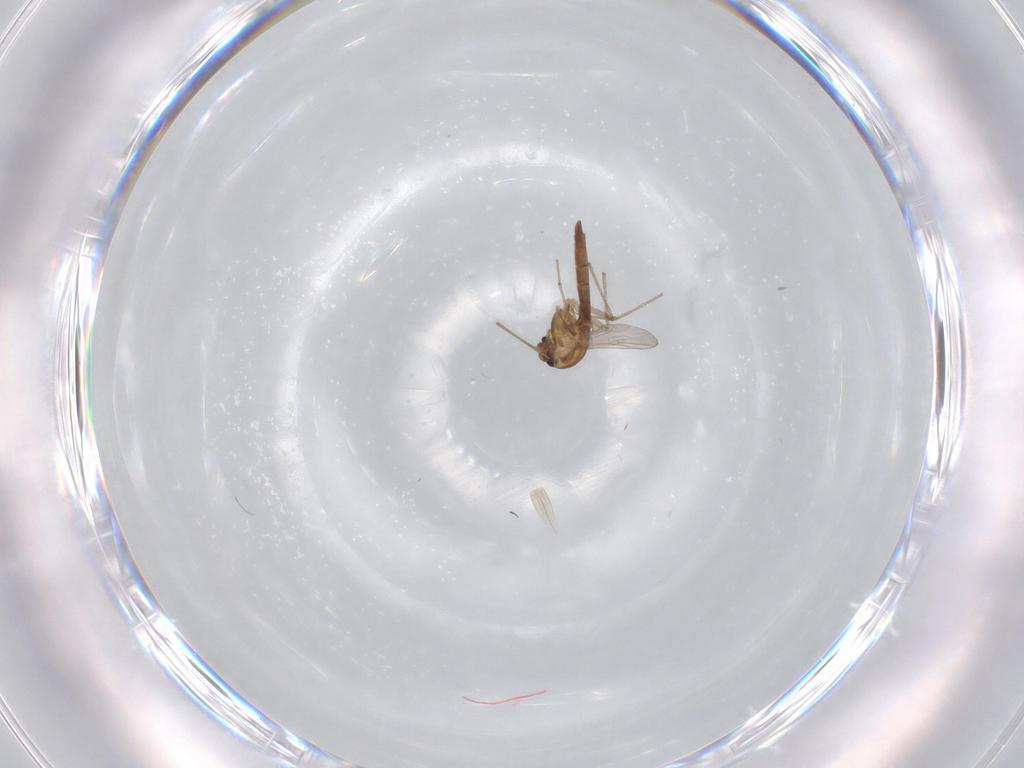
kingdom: Animalia
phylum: Arthropoda
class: Insecta
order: Diptera
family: Chironomidae
